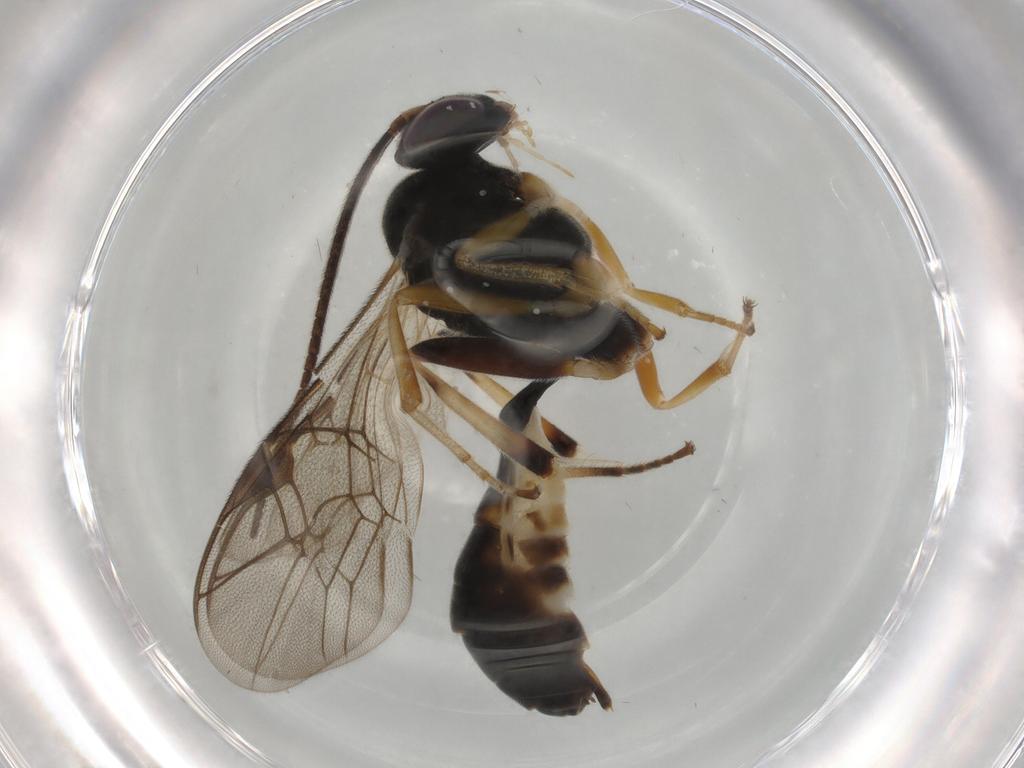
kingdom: Animalia
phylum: Arthropoda
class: Insecta
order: Hymenoptera
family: Ichneumonidae
